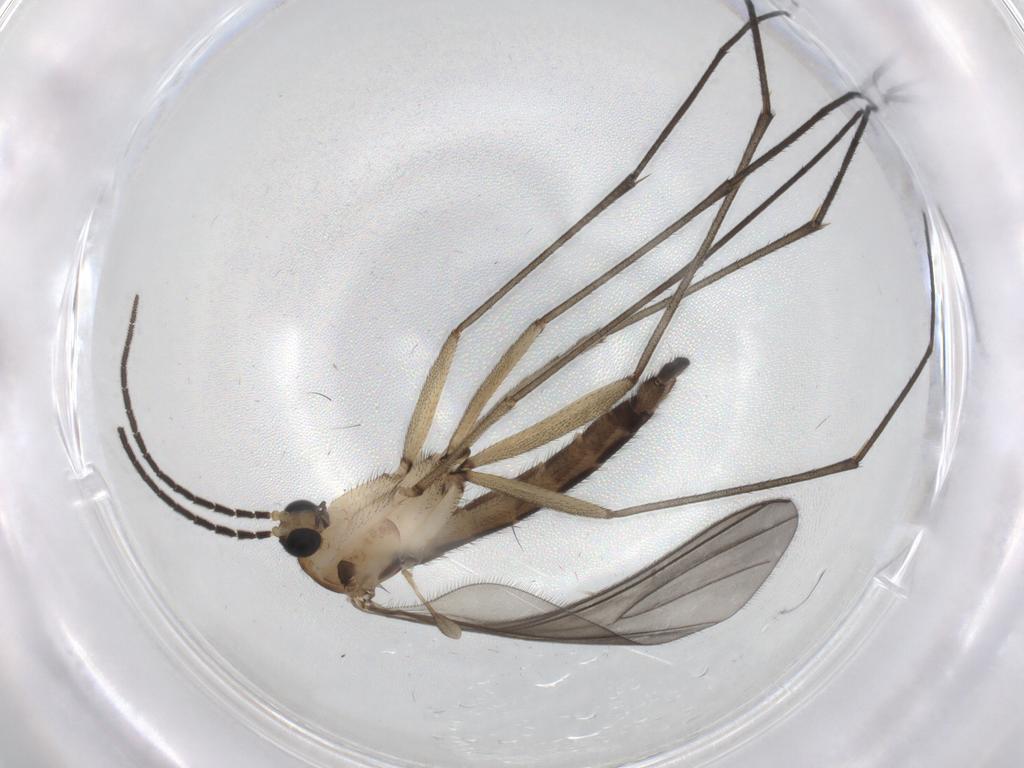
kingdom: Animalia
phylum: Arthropoda
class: Insecta
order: Diptera
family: Sciaridae
